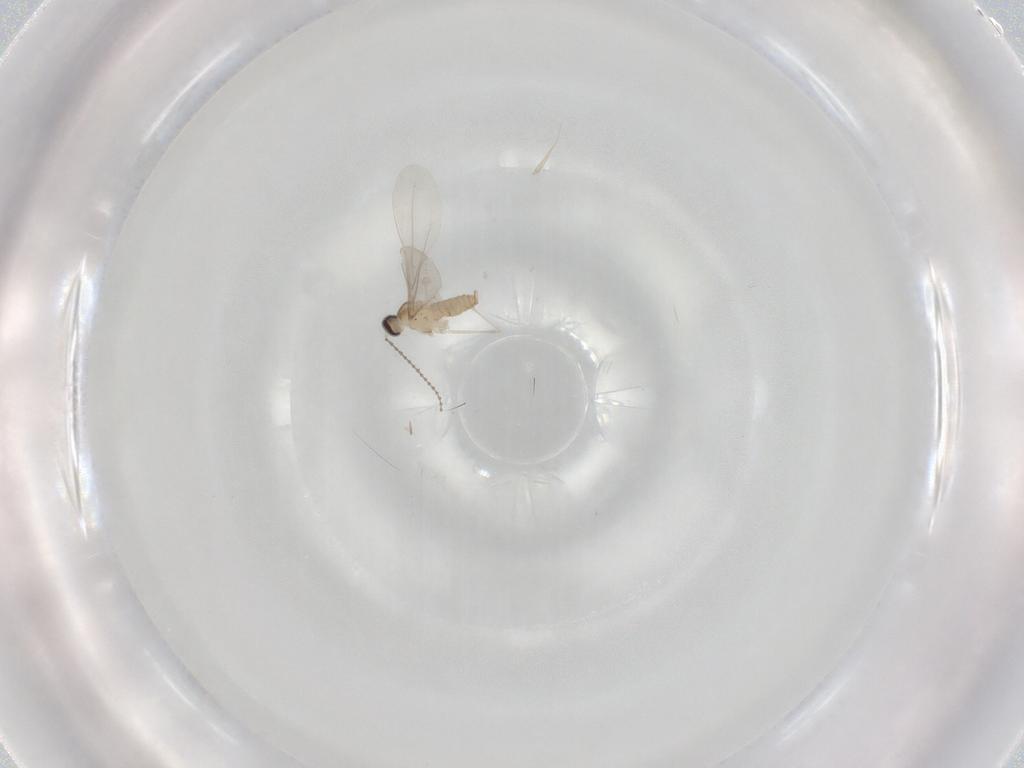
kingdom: Animalia
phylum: Arthropoda
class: Insecta
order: Diptera
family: Cecidomyiidae
